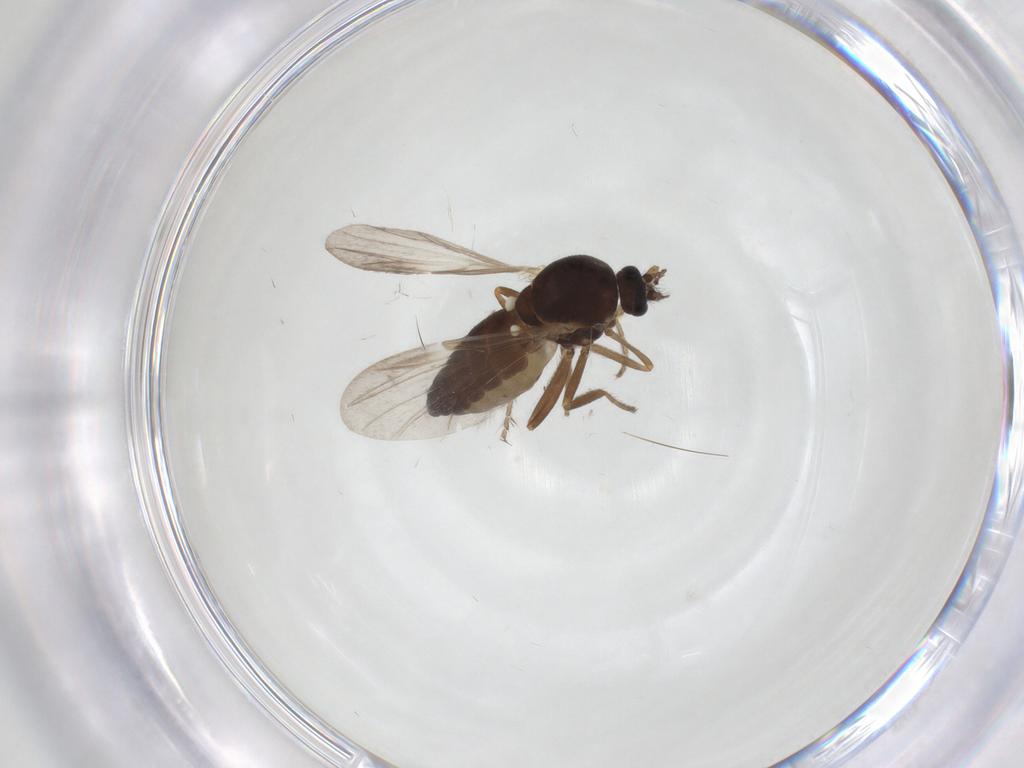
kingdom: Animalia
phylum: Arthropoda
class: Insecta
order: Diptera
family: Ceratopogonidae
